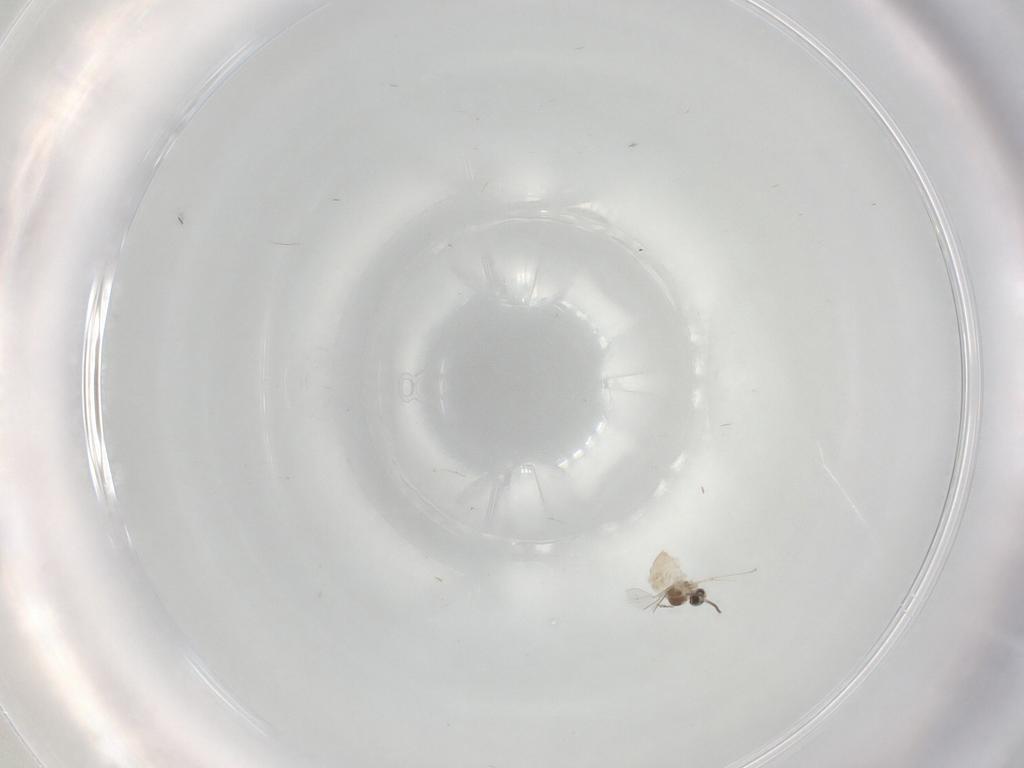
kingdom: Animalia
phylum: Arthropoda
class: Insecta
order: Diptera
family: Cecidomyiidae
